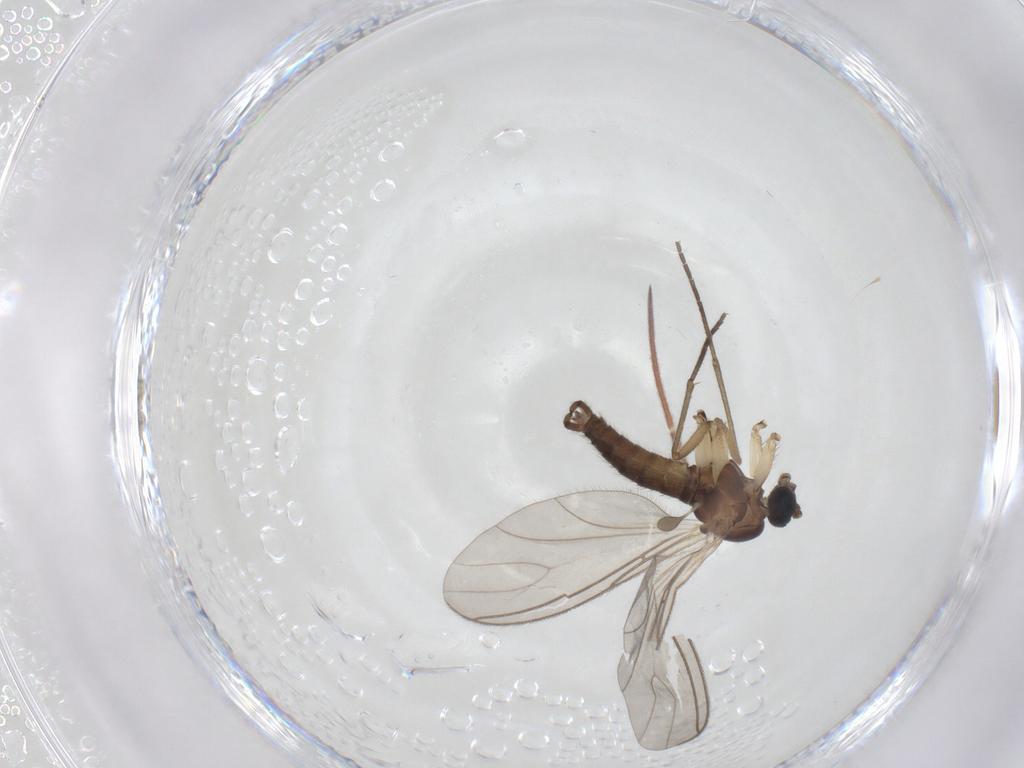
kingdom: Animalia
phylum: Arthropoda
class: Insecta
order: Diptera
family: Sciaridae
